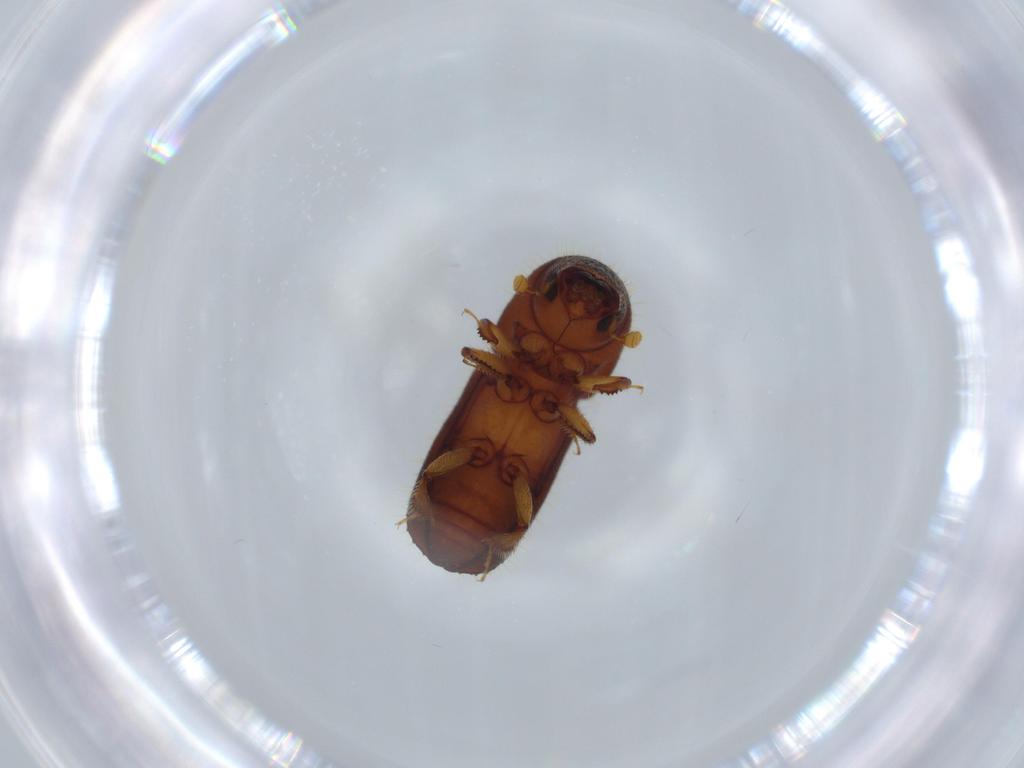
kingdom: Animalia
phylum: Arthropoda
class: Insecta
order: Coleoptera
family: Curculionidae
